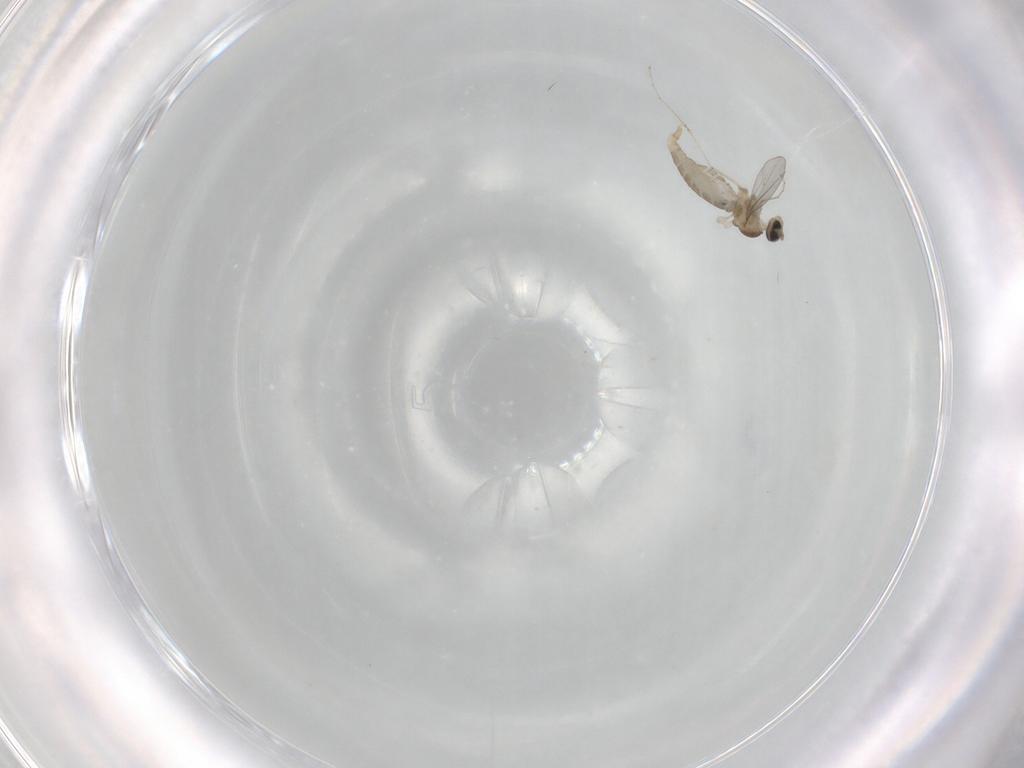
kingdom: Animalia
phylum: Arthropoda
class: Insecta
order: Diptera
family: Cecidomyiidae
